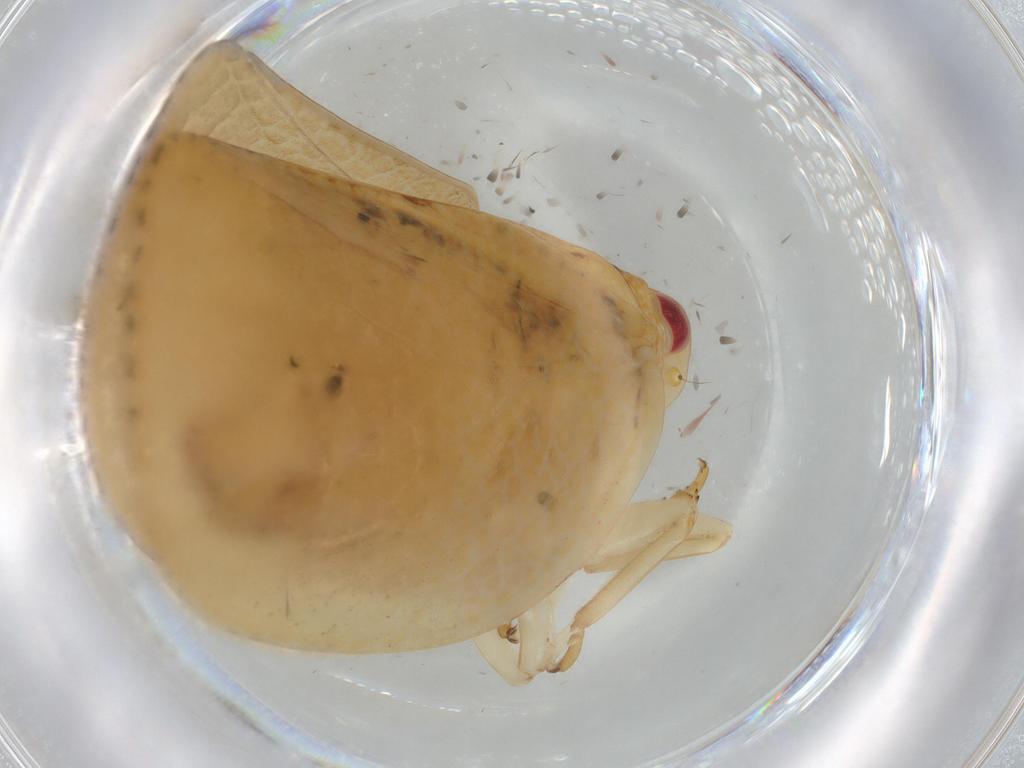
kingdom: Animalia
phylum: Arthropoda
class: Insecta
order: Hemiptera
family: Acanaloniidae
